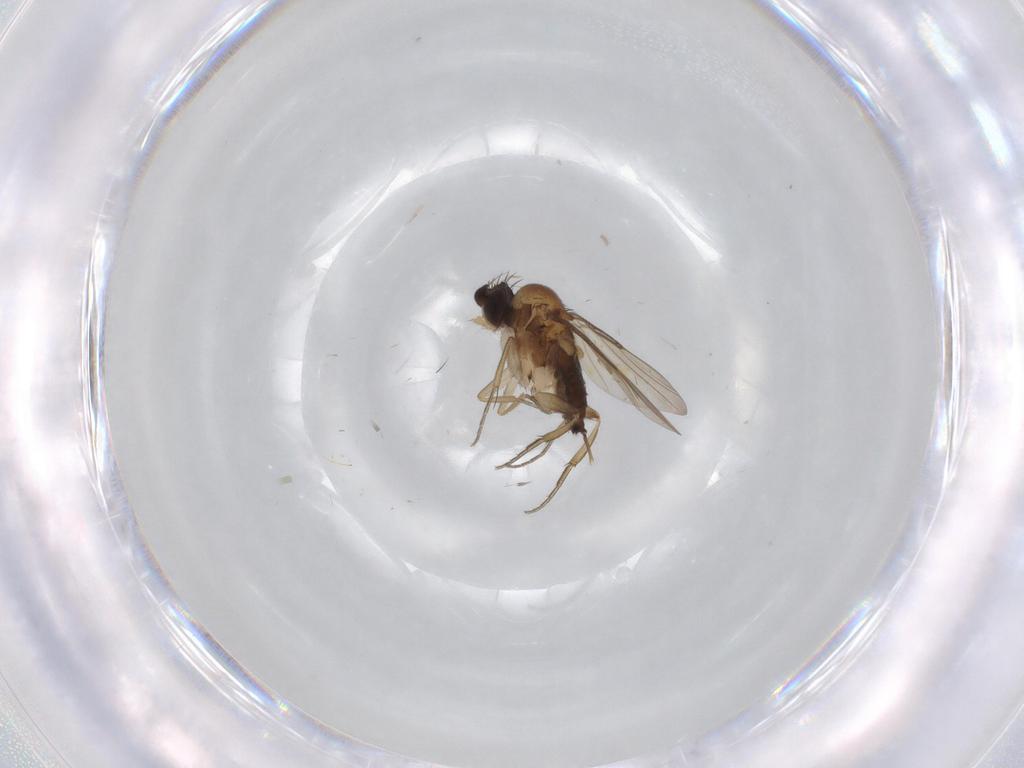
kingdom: Animalia
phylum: Arthropoda
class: Insecta
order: Diptera
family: Phoridae
